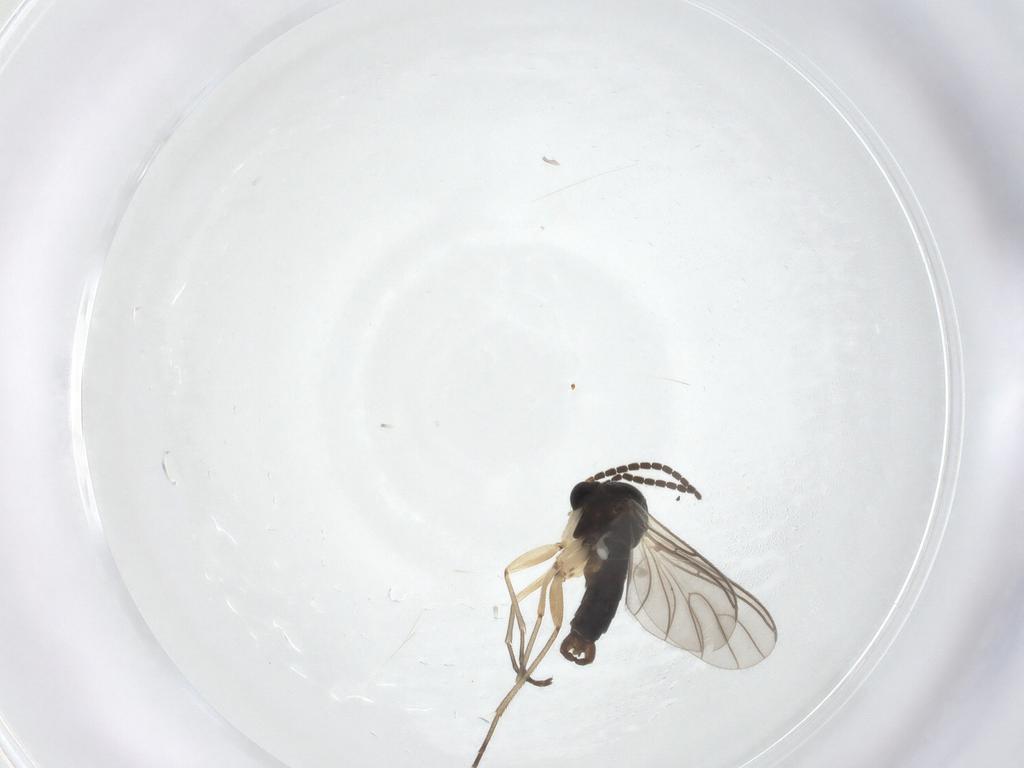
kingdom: Animalia
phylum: Arthropoda
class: Insecta
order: Diptera
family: Sciaridae
